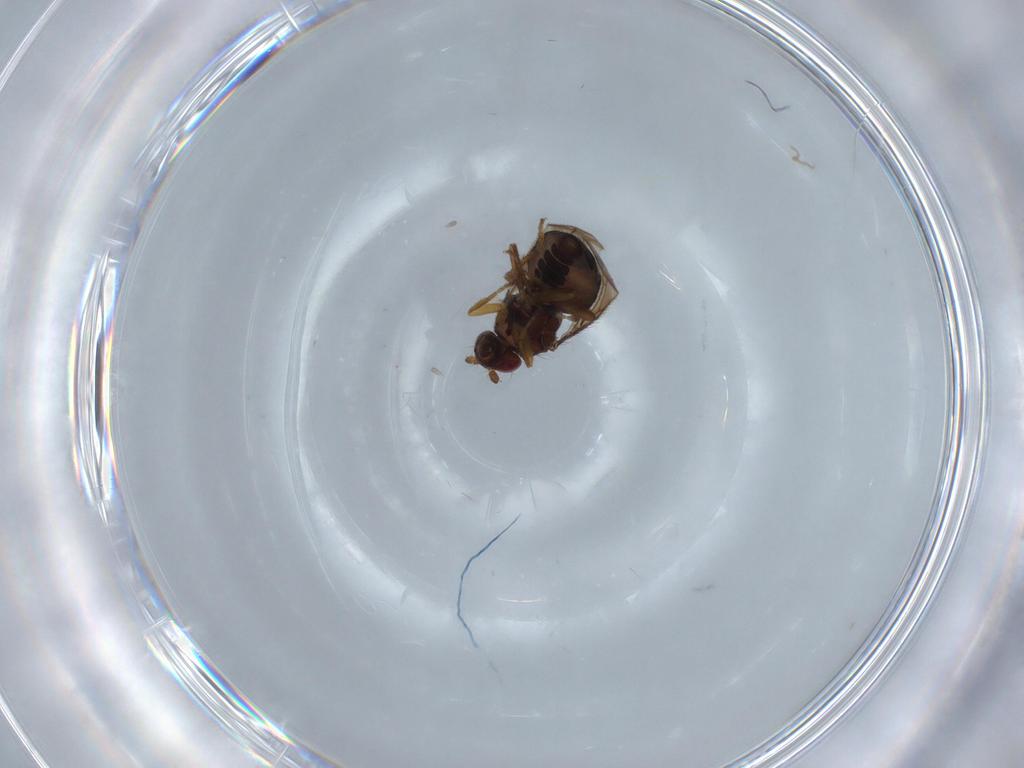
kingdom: Animalia
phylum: Arthropoda
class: Insecta
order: Diptera
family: Sphaeroceridae
